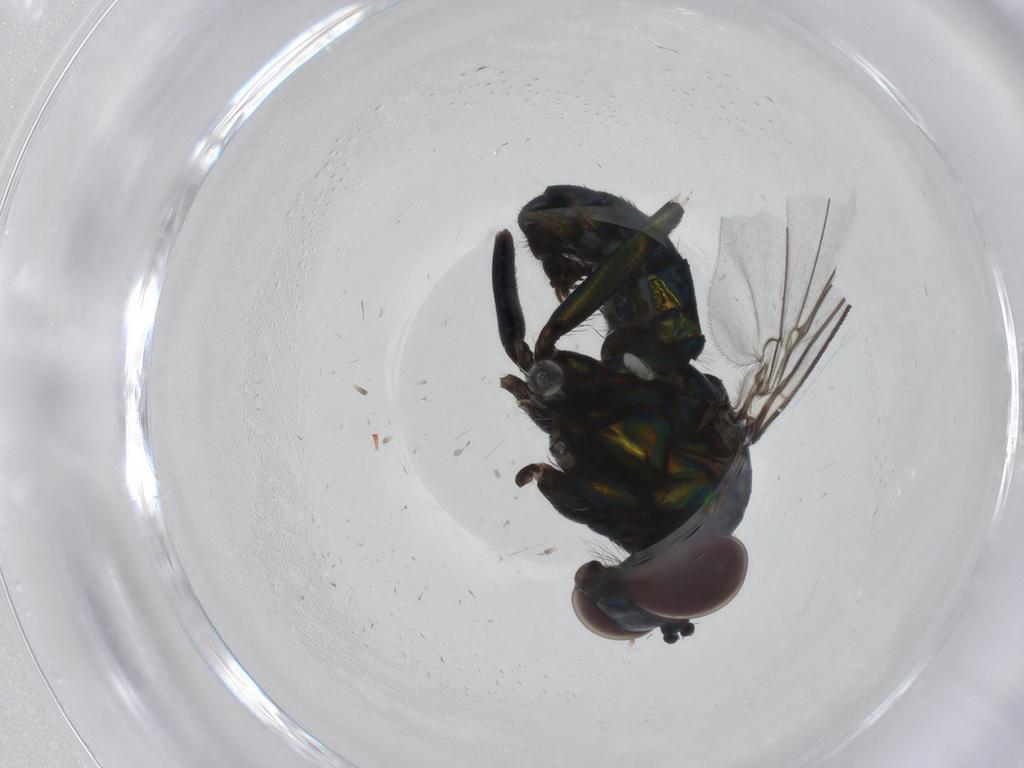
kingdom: Animalia
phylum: Arthropoda
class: Insecta
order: Diptera
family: Dolichopodidae
